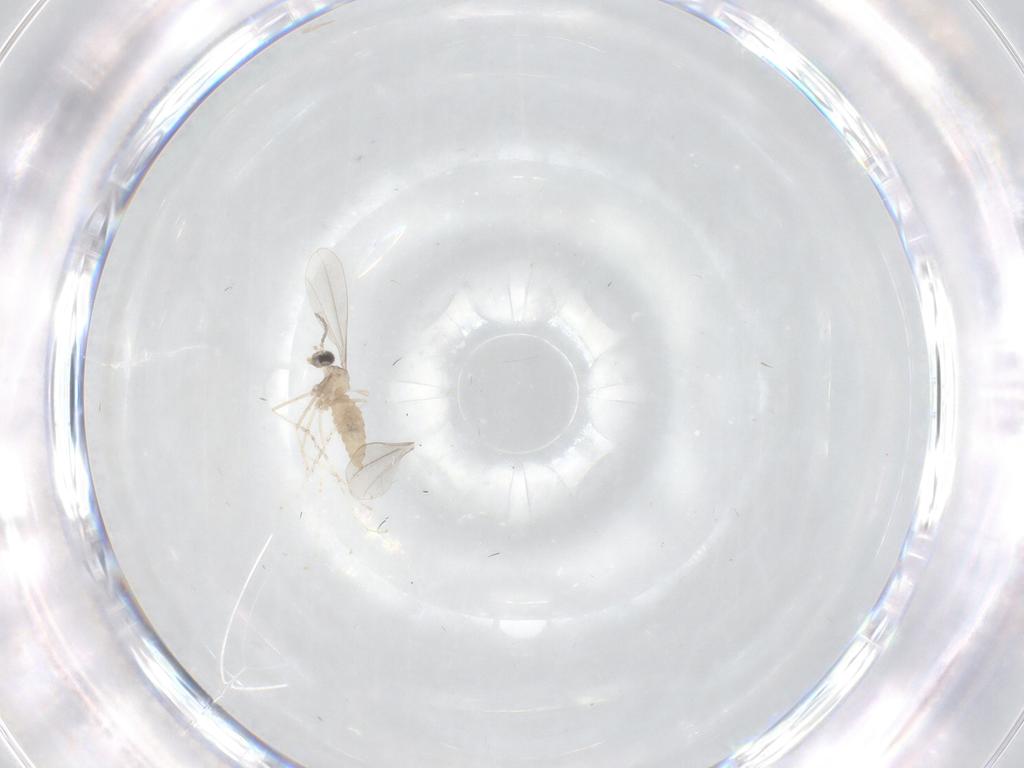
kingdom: Animalia
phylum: Arthropoda
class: Insecta
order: Diptera
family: Cecidomyiidae
